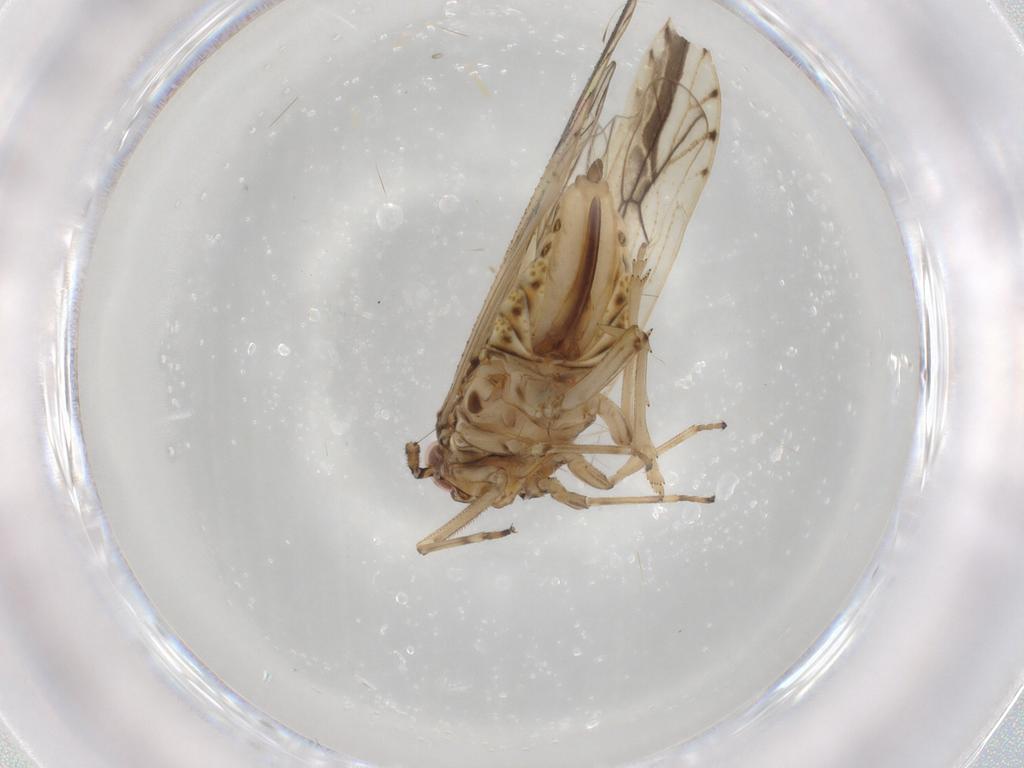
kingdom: Animalia
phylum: Arthropoda
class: Insecta
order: Hemiptera
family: Delphacidae
